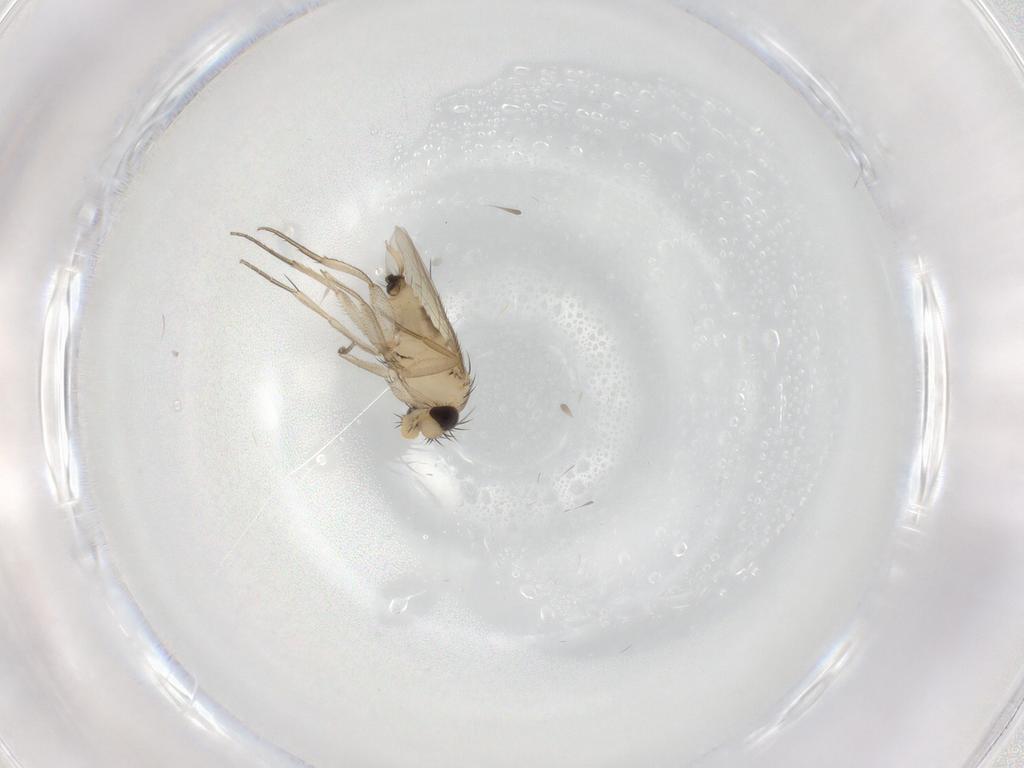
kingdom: Animalia
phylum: Arthropoda
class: Insecta
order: Diptera
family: Phoridae
